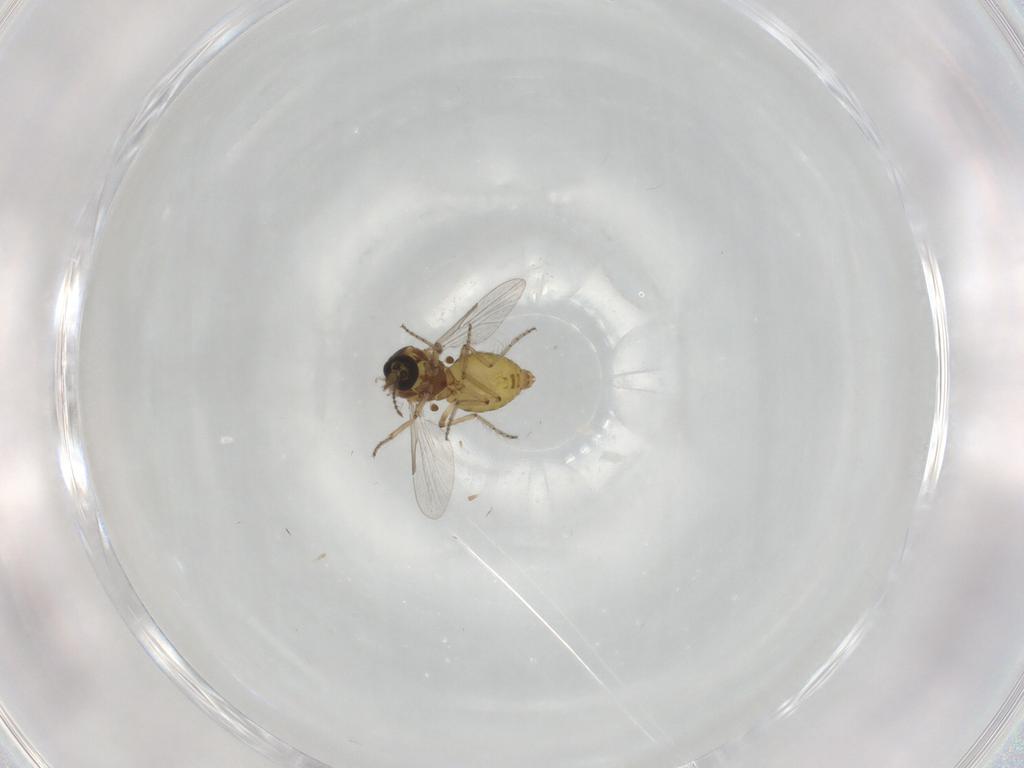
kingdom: Animalia
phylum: Arthropoda
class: Insecta
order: Diptera
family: Ceratopogonidae
